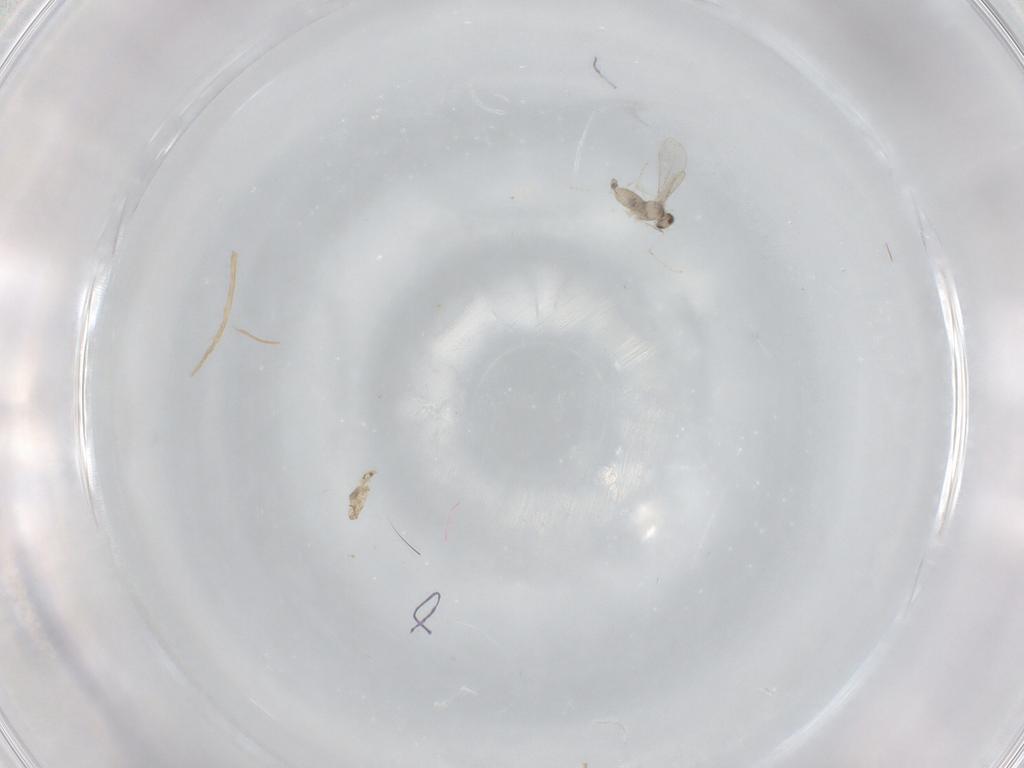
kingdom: Animalia
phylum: Arthropoda
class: Insecta
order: Diptera
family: Cecidomyiidae
